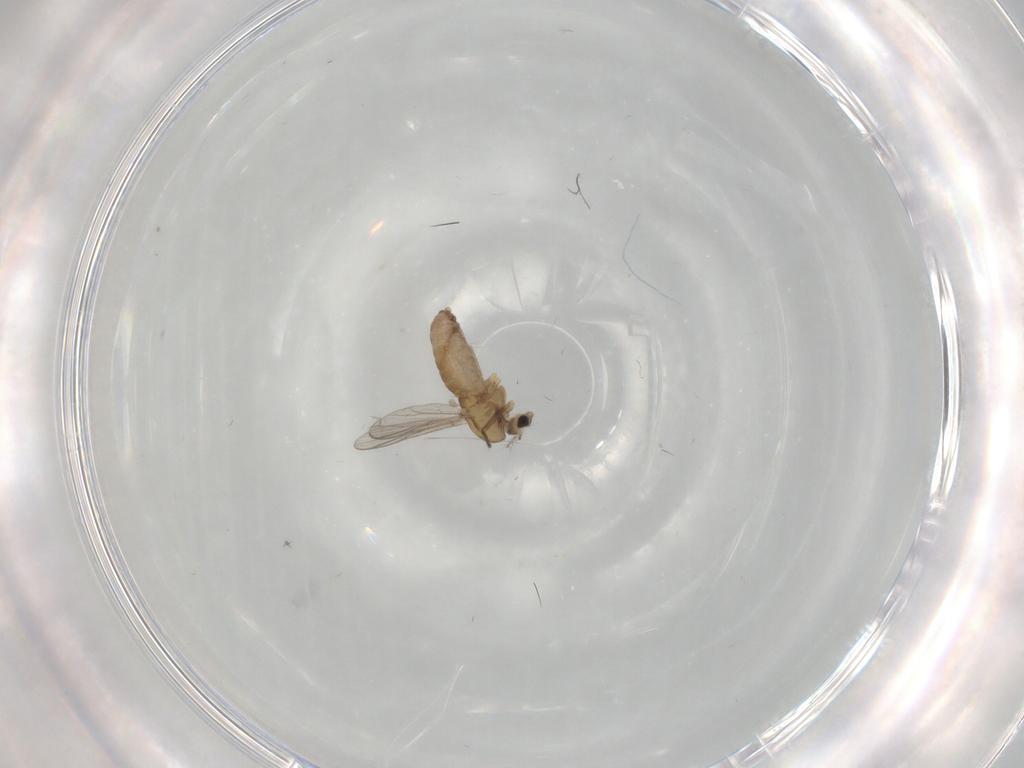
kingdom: Animalia
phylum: Arthropoda
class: Insecta
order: Diptera
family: Chironomidae
